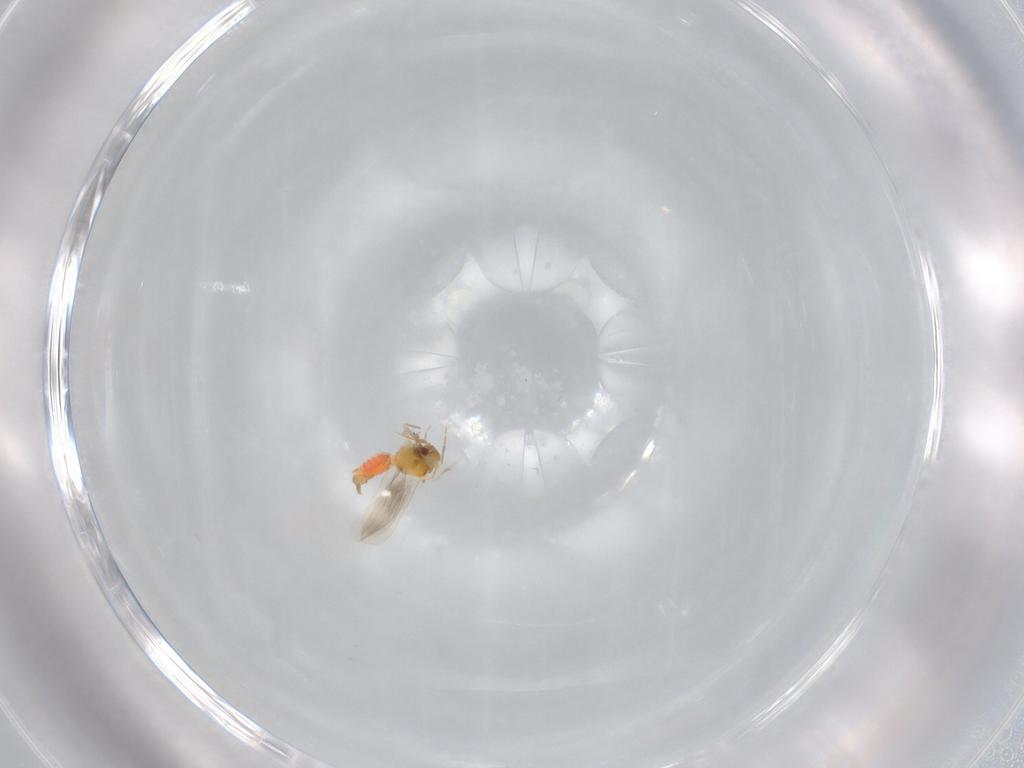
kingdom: Animalia
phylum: Arthropoda
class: Insecta
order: Hemiptera
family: Aleyrodidae
